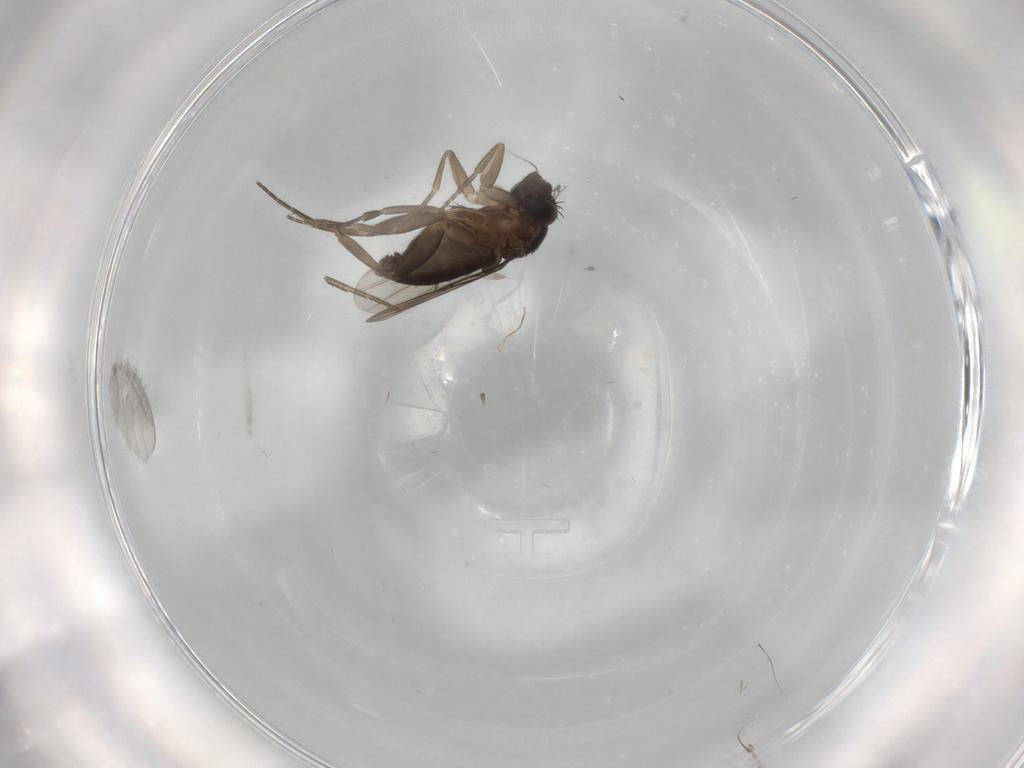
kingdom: Animalia
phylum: Arthropoda
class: Insecta
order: Diptera
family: Phoridae
